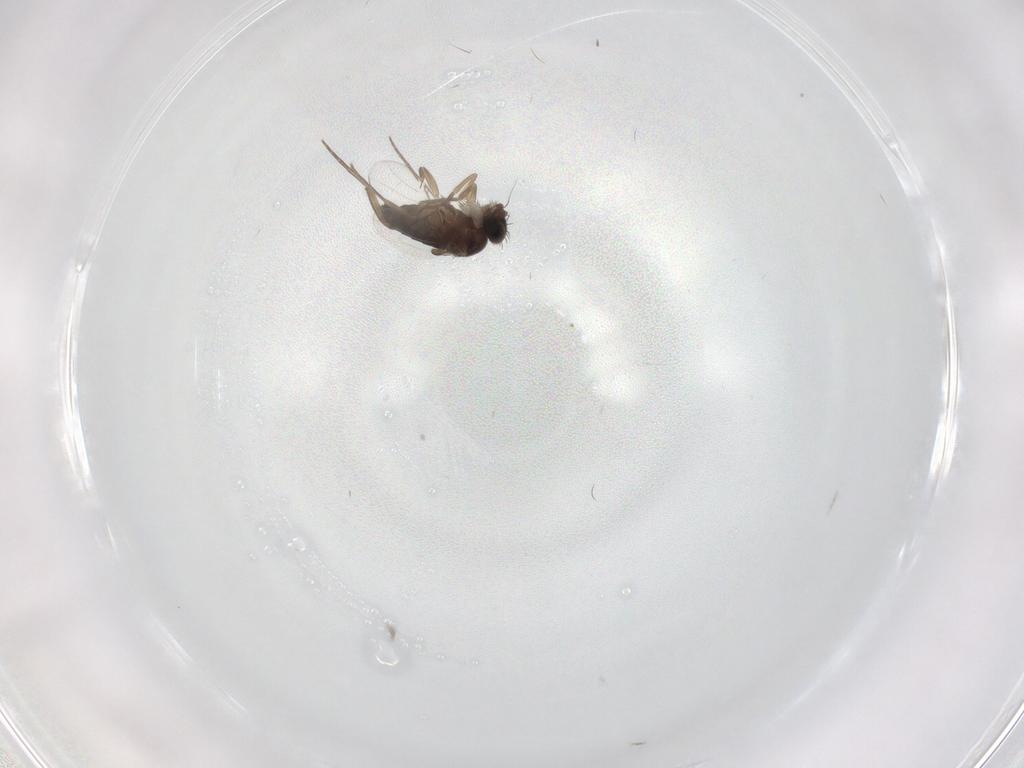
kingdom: Animalia
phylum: Arthropoda
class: Insecta
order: Diptera
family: Phoridae
